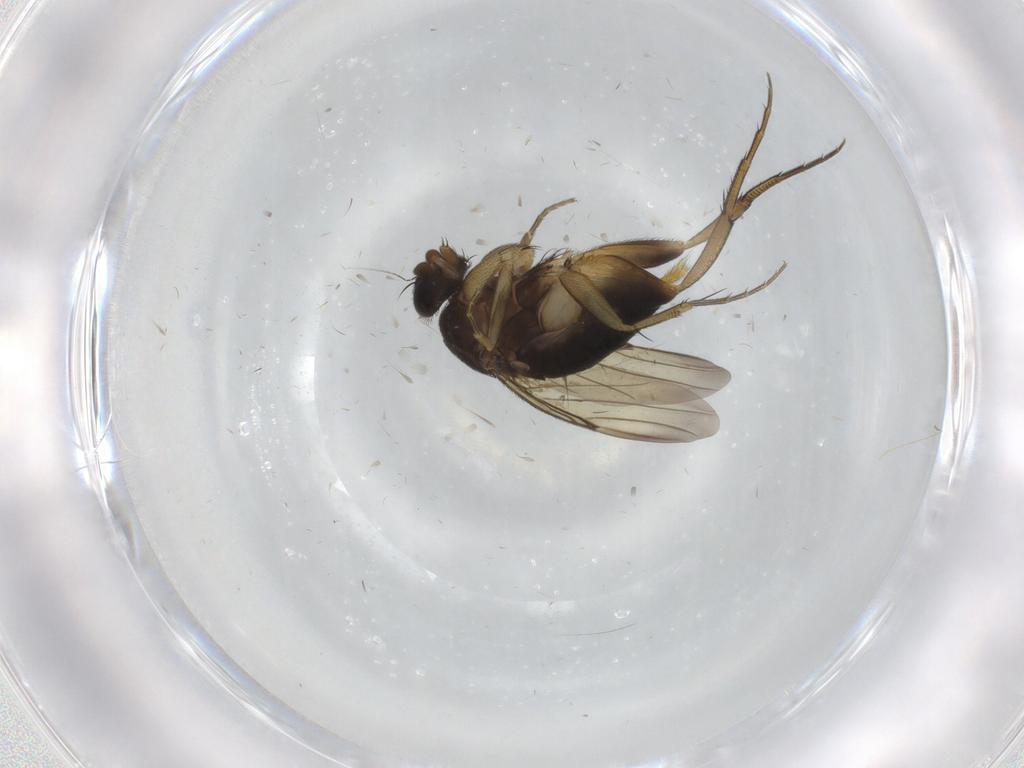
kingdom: Animalia
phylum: Arthropoda
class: Insecta
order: Diptera
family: Phoridae
